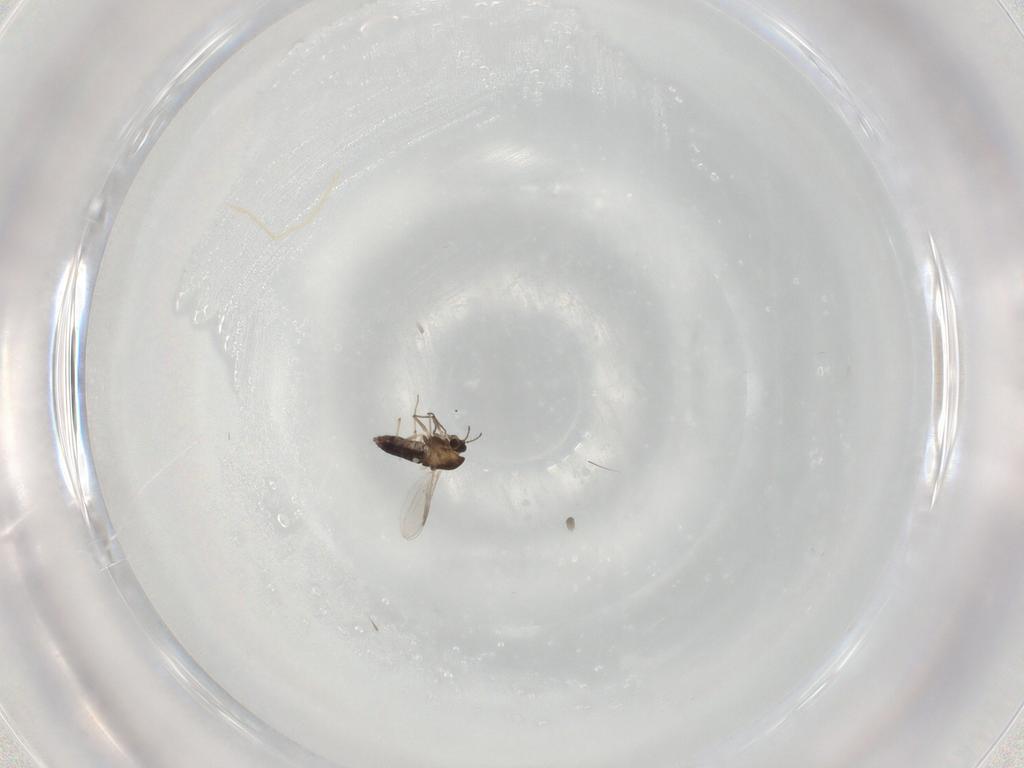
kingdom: Animalia
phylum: Arthropoda
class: Insecta
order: Diptera
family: Chironomidae
